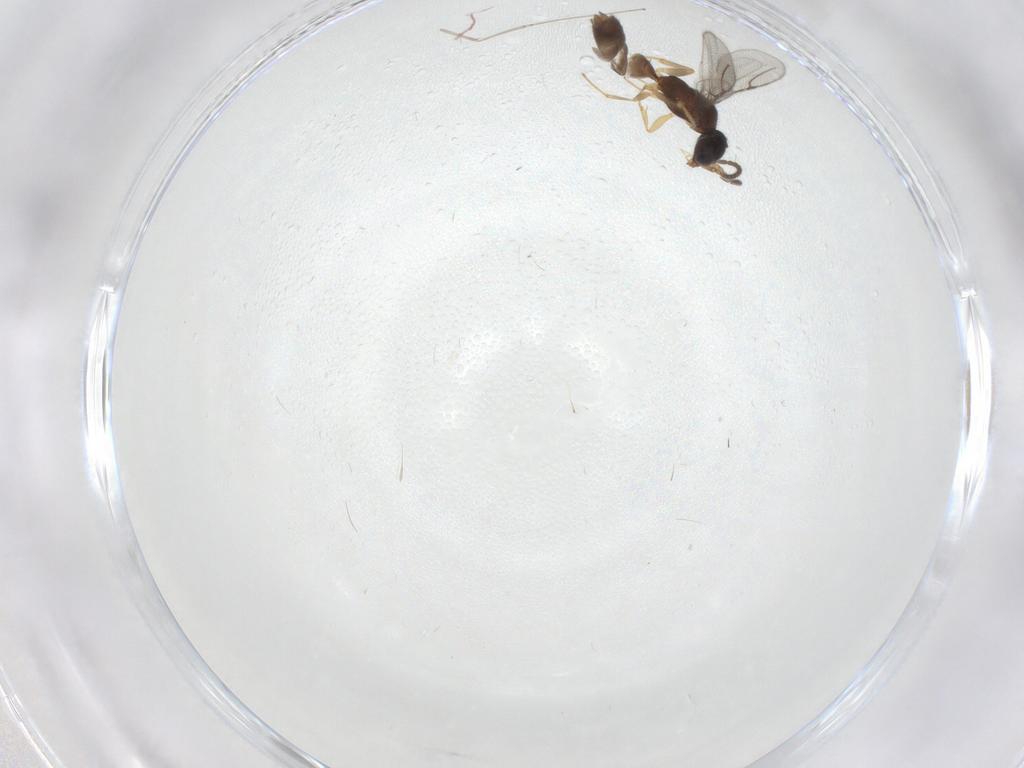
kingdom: Animalia
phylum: Arthropoda
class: Insecta
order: Hymenoptera
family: Bethylidae
